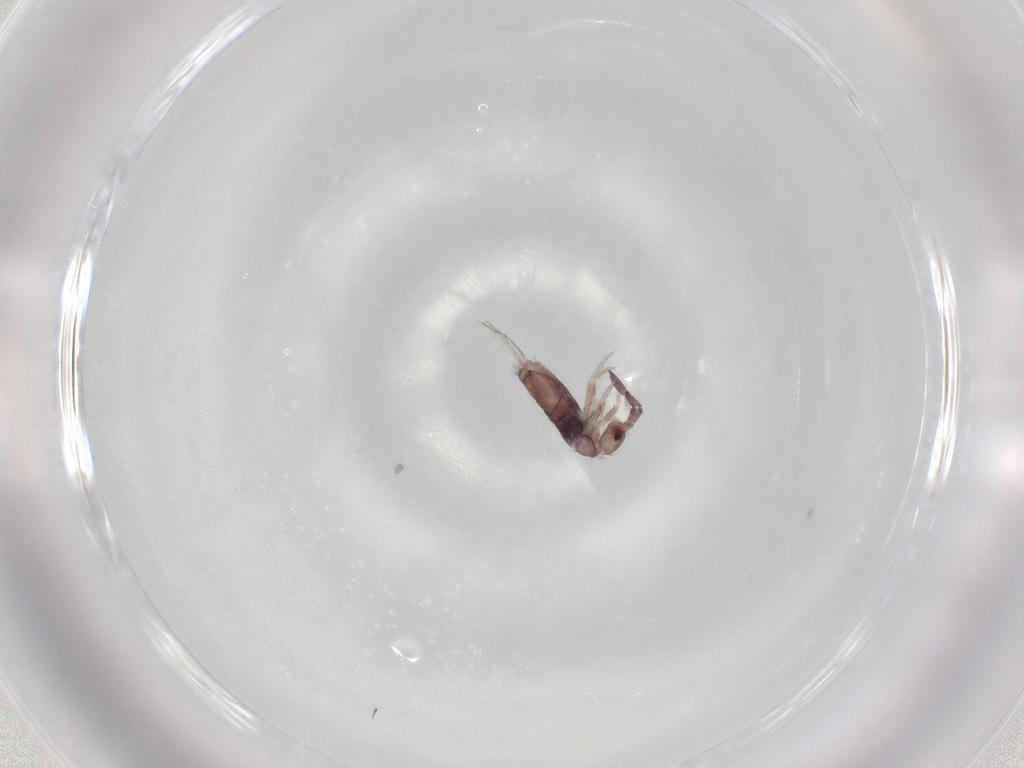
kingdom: Animalia
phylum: Arthropoda
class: Collembola
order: Entomobryomorpha
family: Entomobryidae
